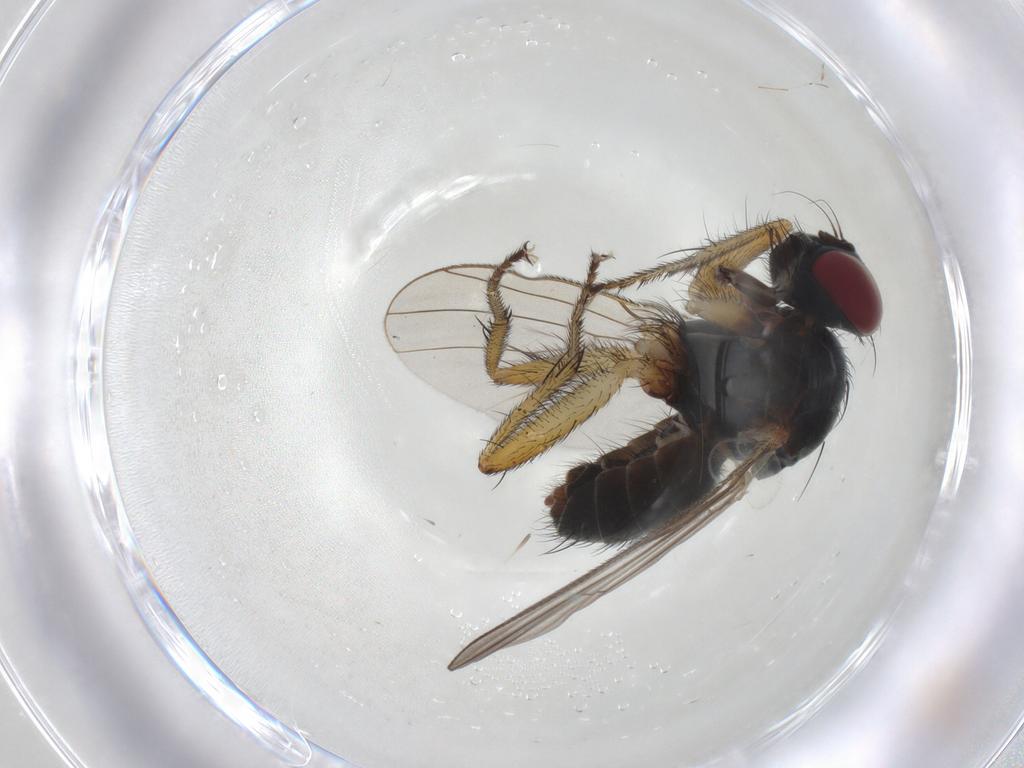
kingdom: Animalia
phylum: Arthropoda
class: Insecta
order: Diptera
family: Muscidae
